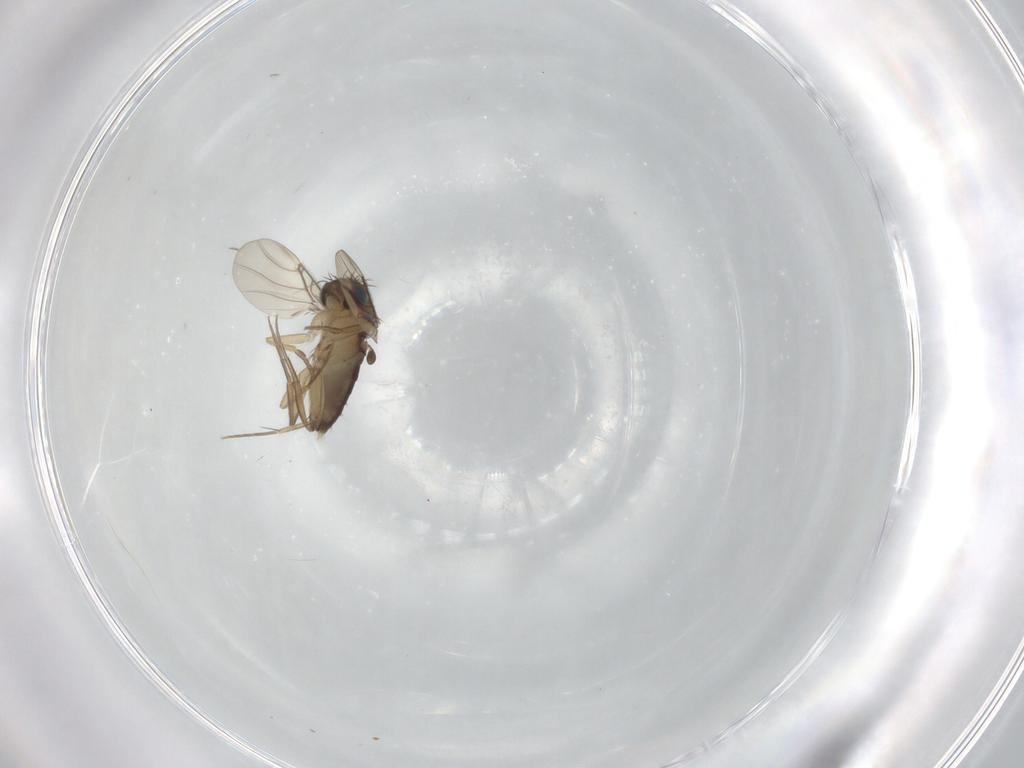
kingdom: Animalia
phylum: Arthropoda
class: Insecta
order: Diptera
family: Phoridae
